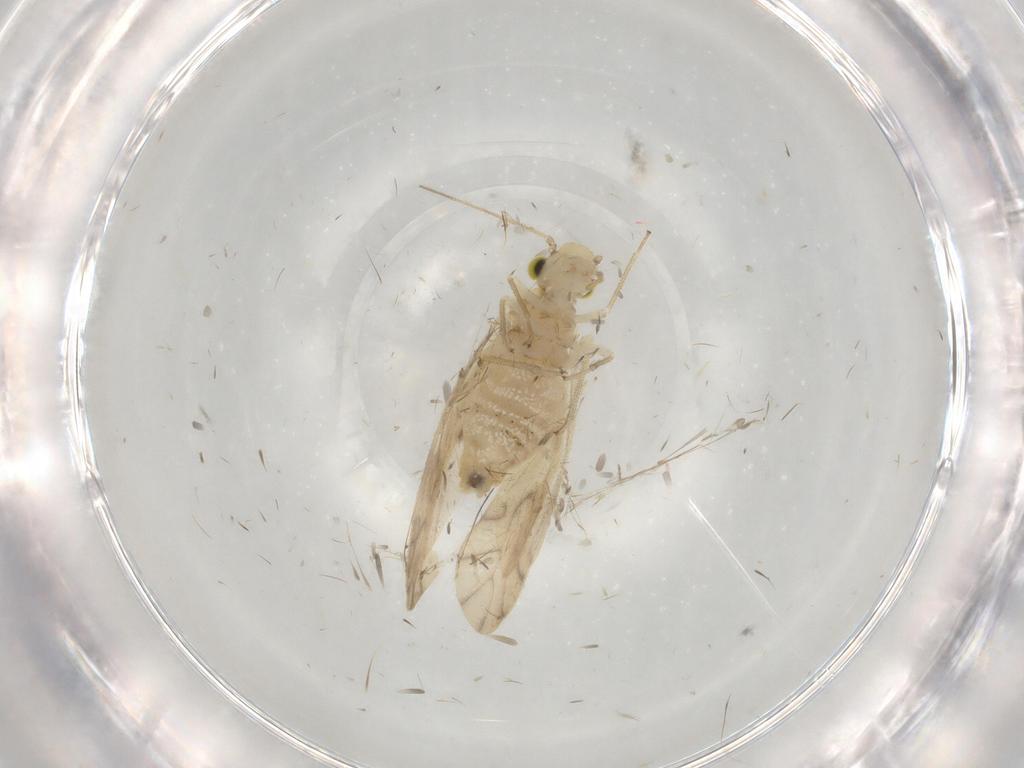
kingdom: Animalia
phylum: Arthropoda
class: Insecta
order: Psocodea
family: Caeciliusidae
